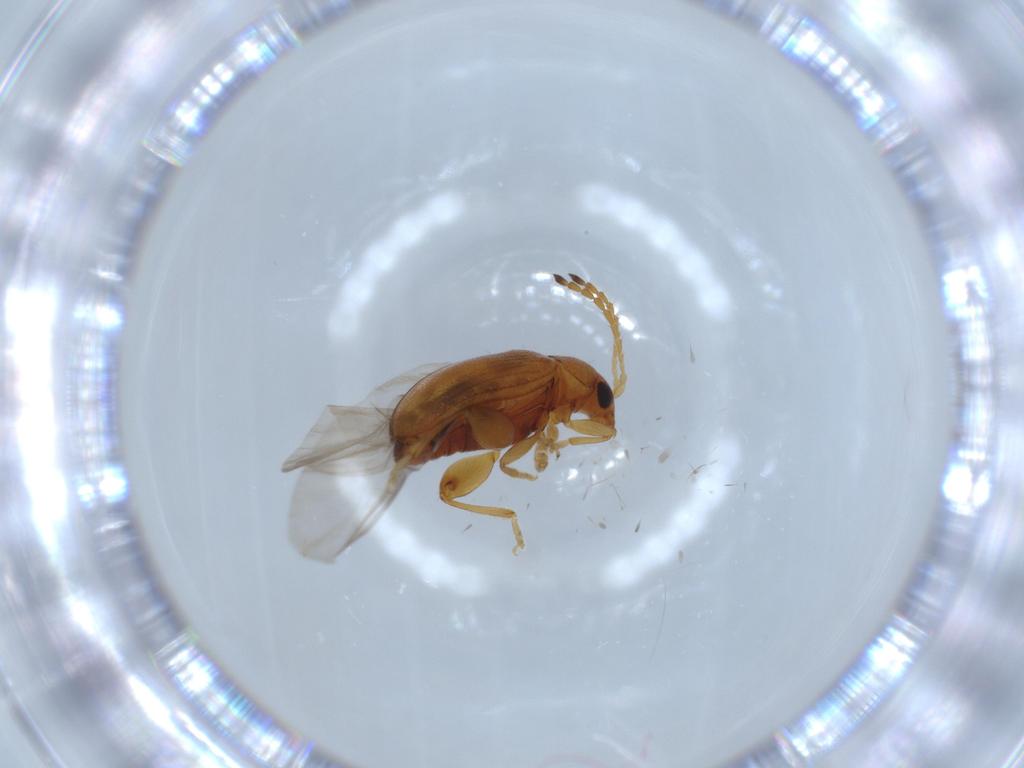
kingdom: Animalia
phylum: Arthropoda
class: Insecta
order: Coleoptera
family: Chrysomelidae
